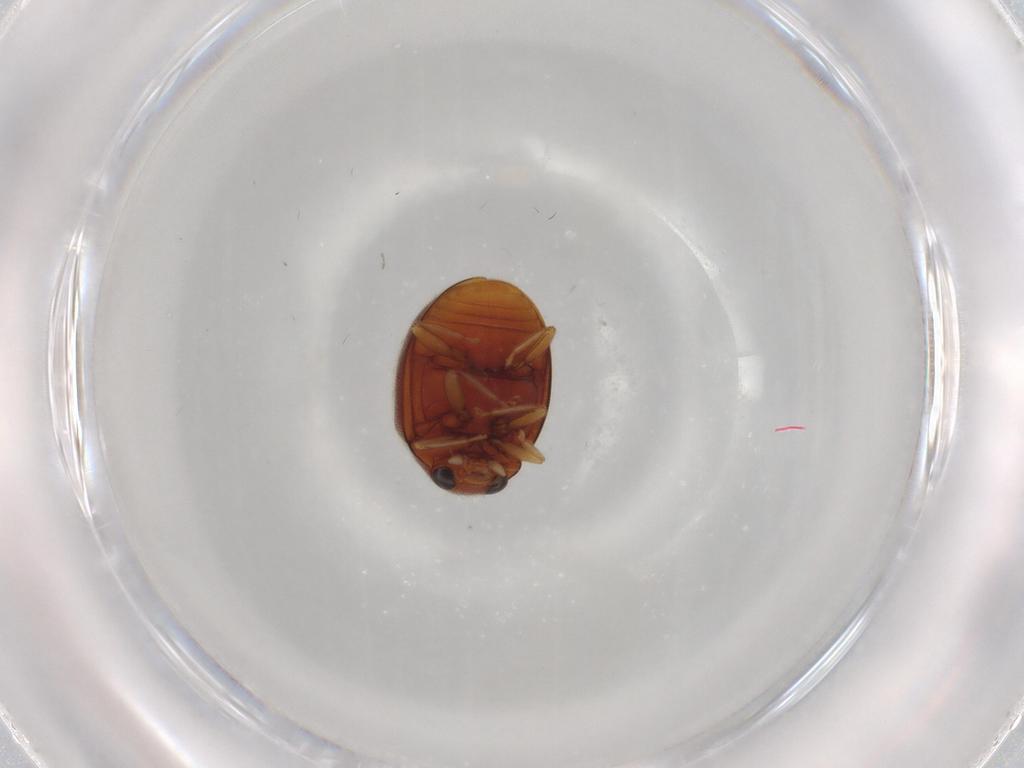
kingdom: Animalia
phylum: Arthropoda
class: Insecta
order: Coleoptera
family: Coccinellidae
